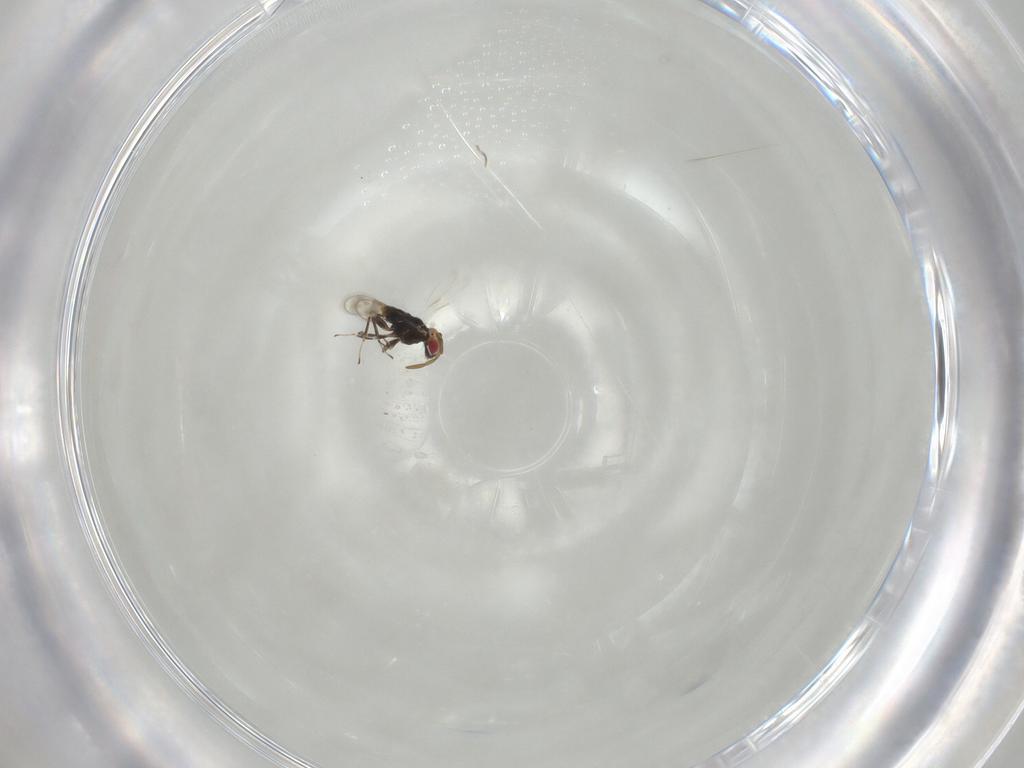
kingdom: Animalia
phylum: Arthropoda
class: Insecta
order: Hymenoptera
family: Azotidae
